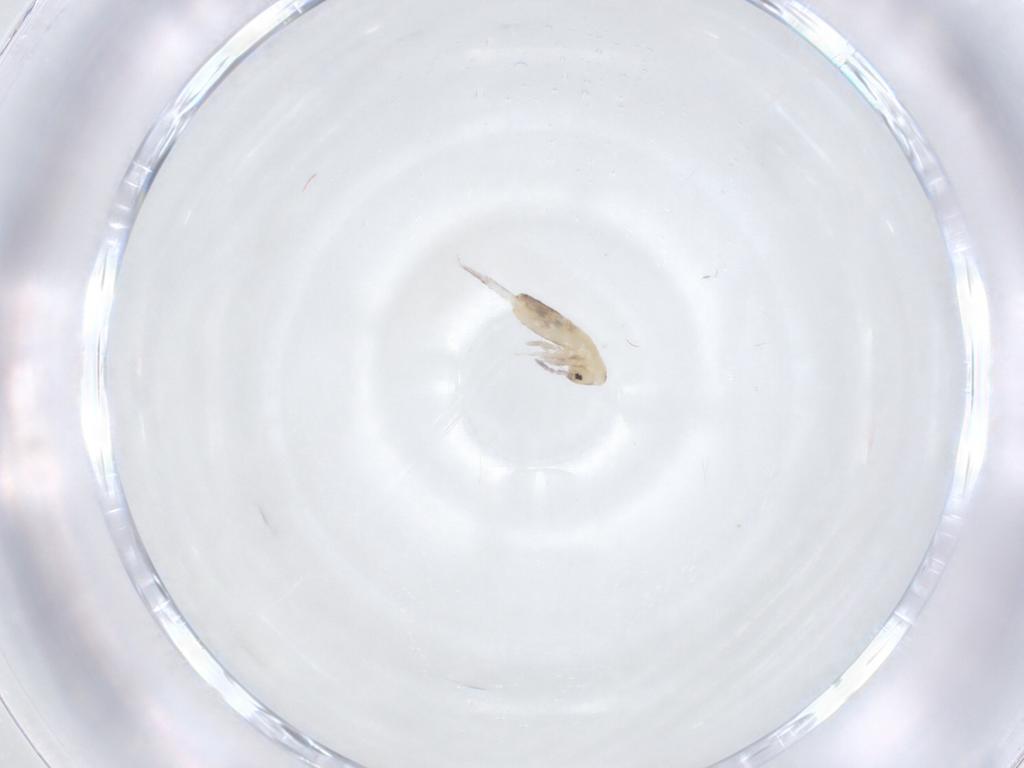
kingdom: Animalia
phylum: Arthropoda
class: Collembola
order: Entomobryomorpha
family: Entomobryidae
